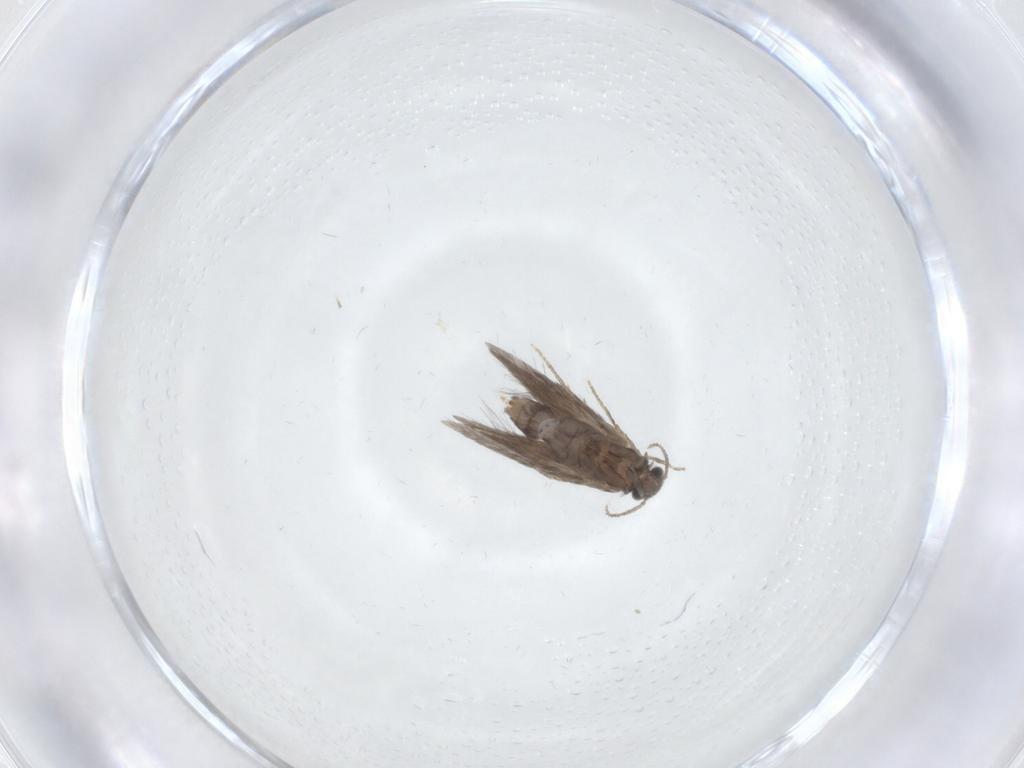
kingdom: Animalia
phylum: Arthropoda
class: Insecta
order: Trichoptera
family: Hydroptilidae
